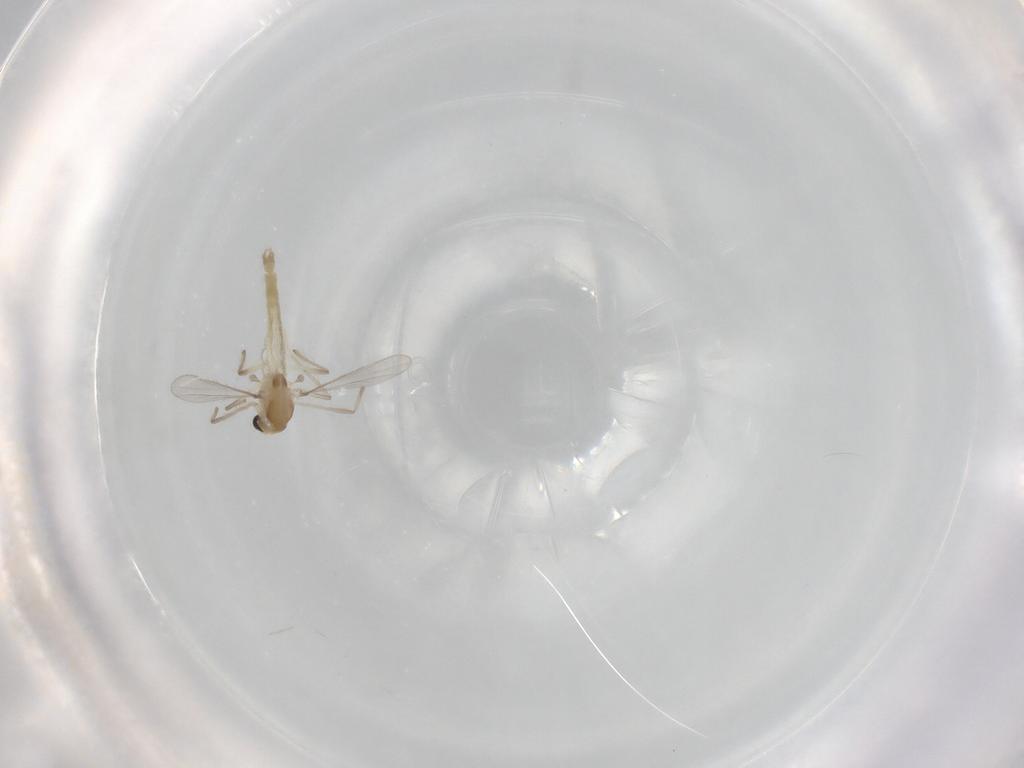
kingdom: Animalia
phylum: Arthropoda
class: Insecta
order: Diptera
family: Chironomidae
